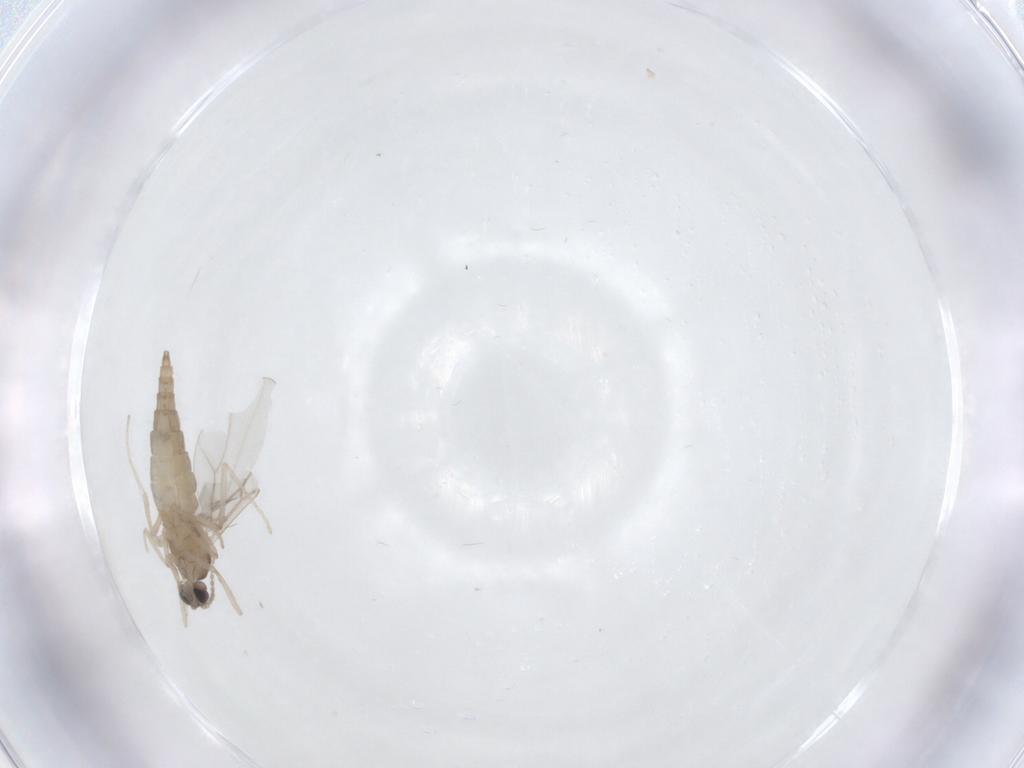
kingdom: Animalia
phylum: Arthropoda
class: Insecta
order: Diptera
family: Cecidomyiidae
